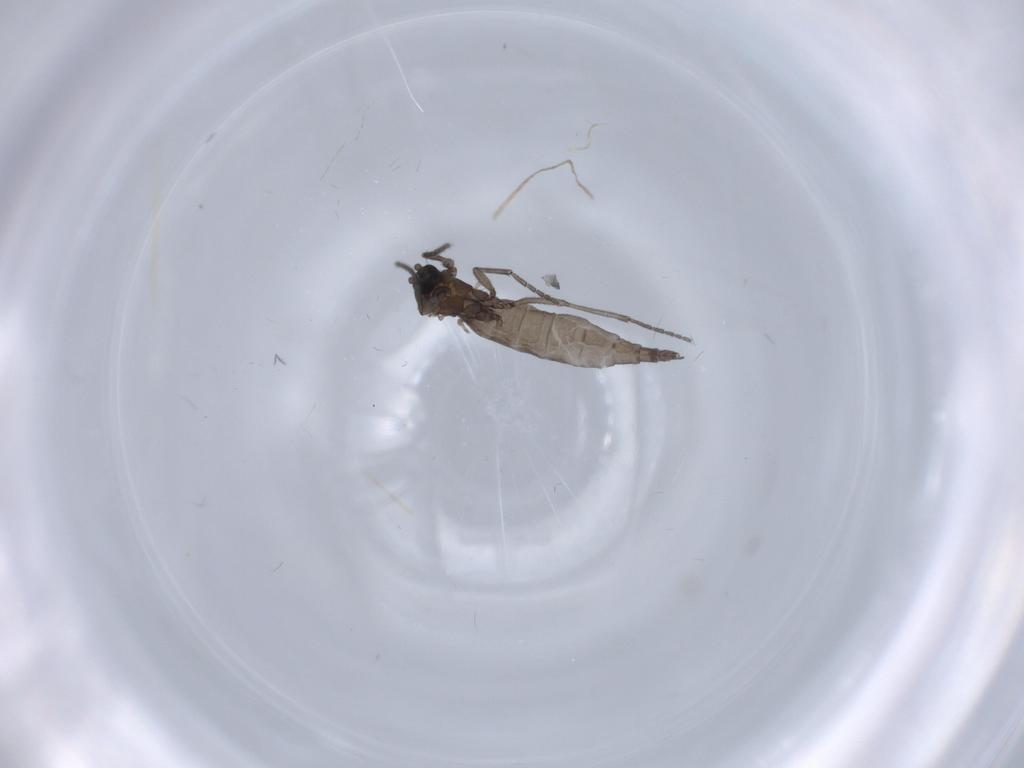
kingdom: Animalia
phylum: Arthropoda
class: Insecta
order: Diptera
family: Sciaridae
